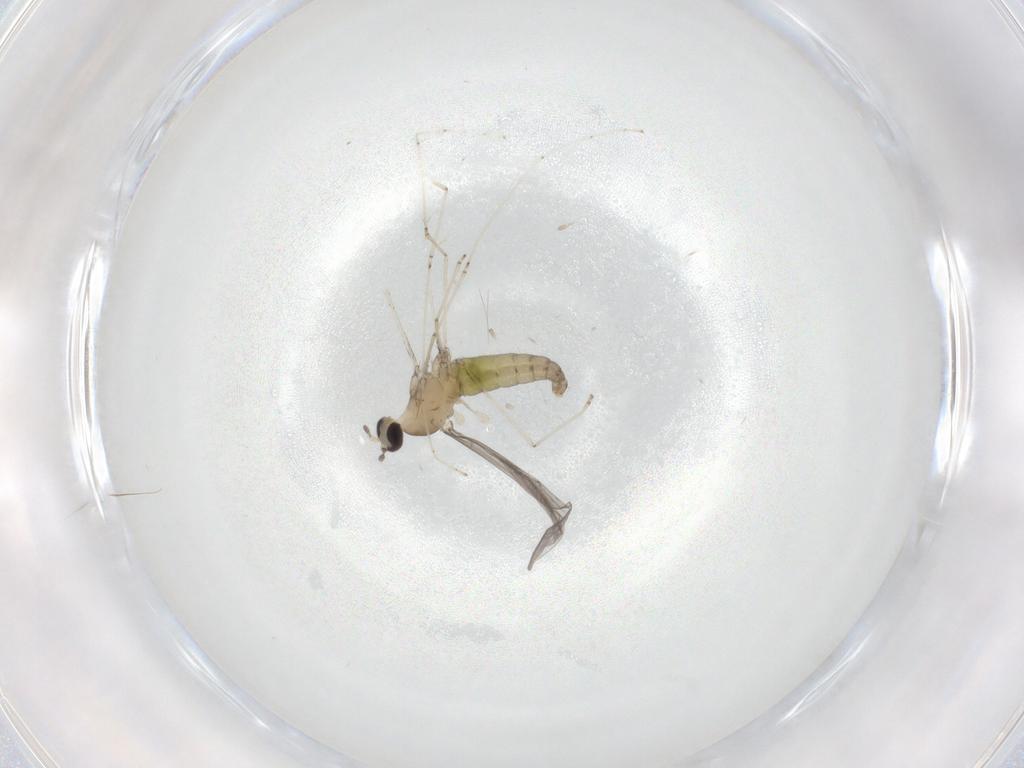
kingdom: Animalia
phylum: Arthropoda
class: Insecta
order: Diptera
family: Cecidomyiidae
